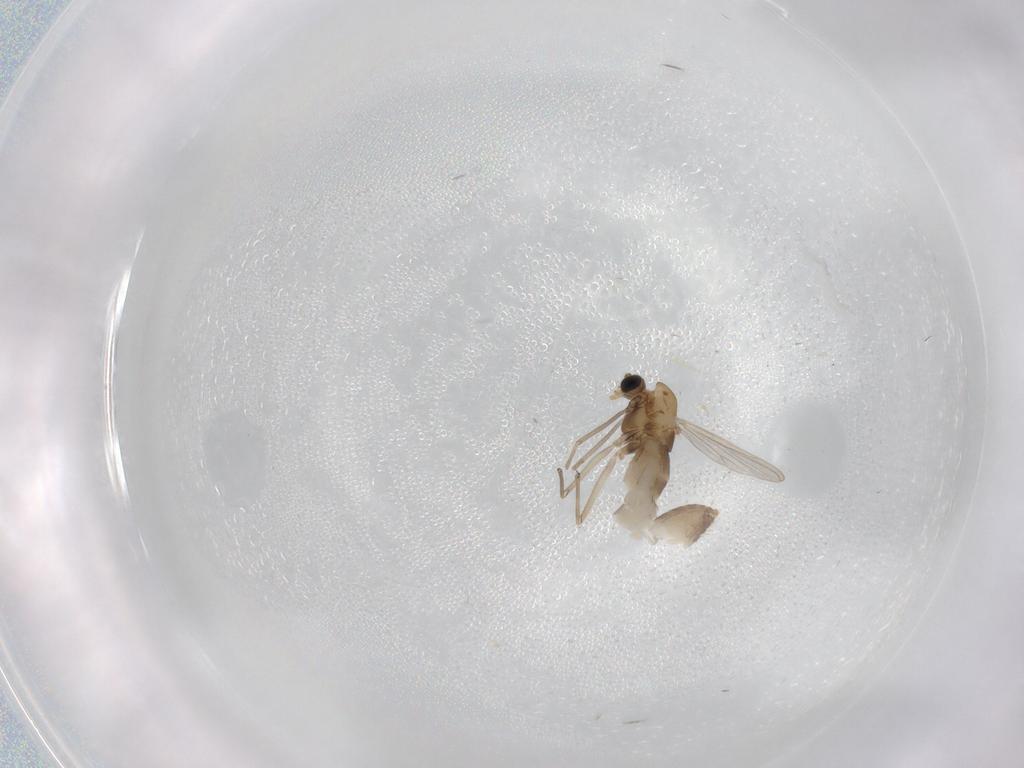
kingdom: Animalia
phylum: Arthropoda
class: Insecta
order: Diptera
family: Chironomidae
